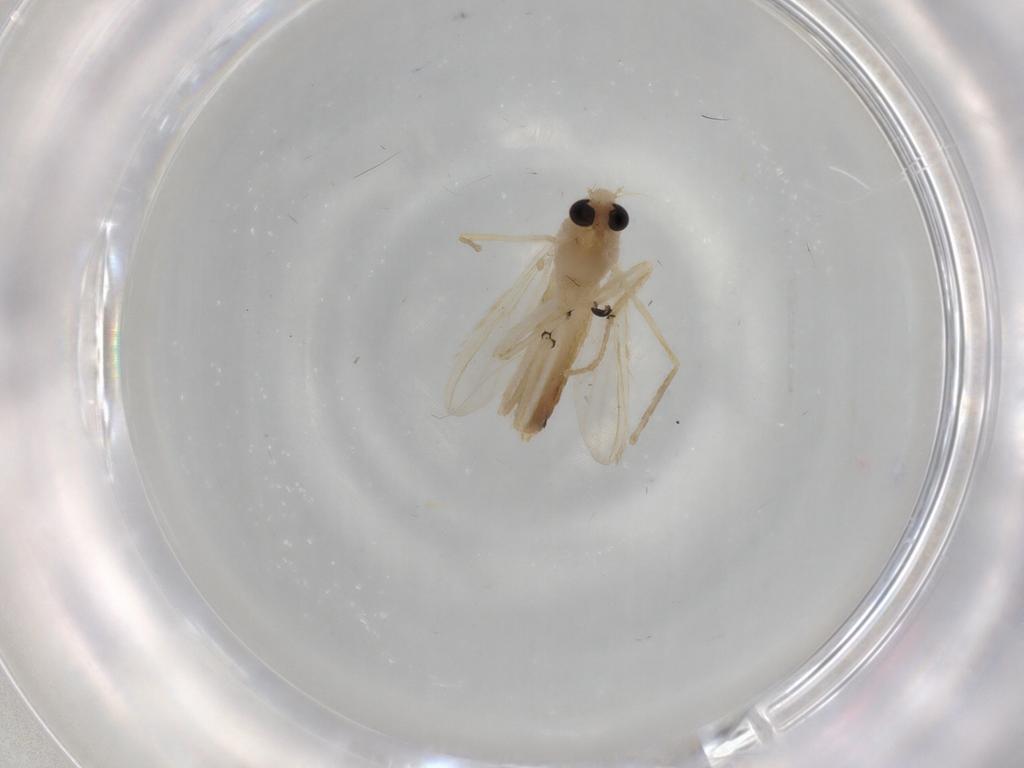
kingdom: Animalia
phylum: Arthropoda
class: Insecta
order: Diptera
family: Chironomidae
